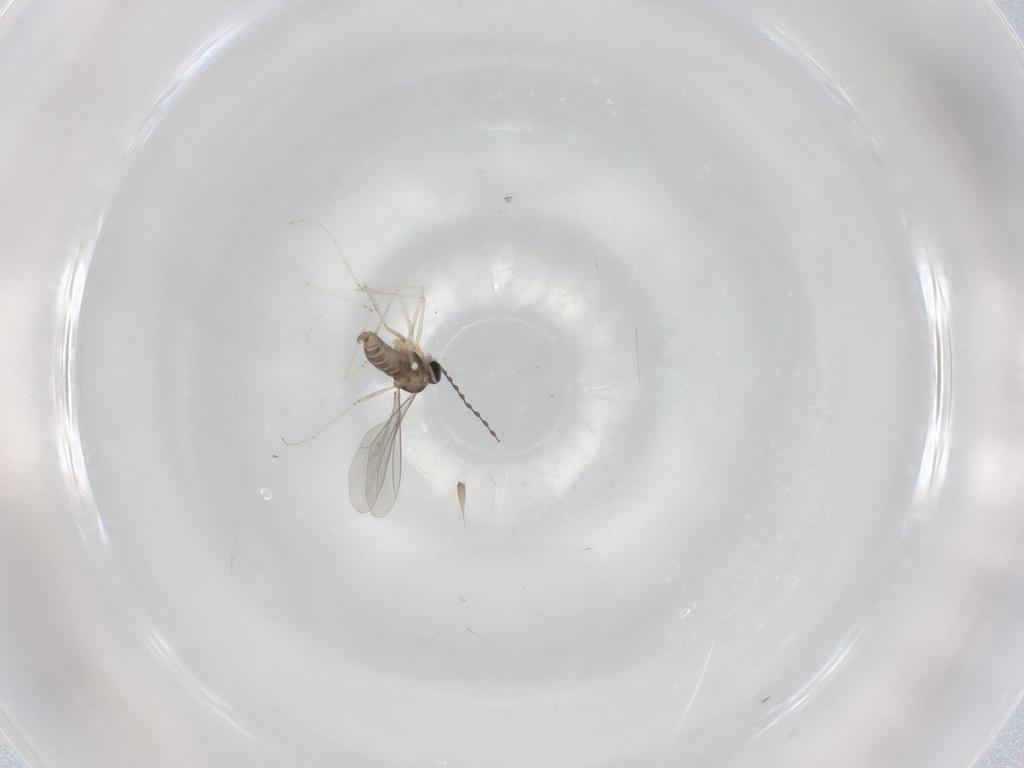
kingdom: Animalia
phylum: Arthropoda
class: Insecta
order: Diptera
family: Cecidomyiidae
